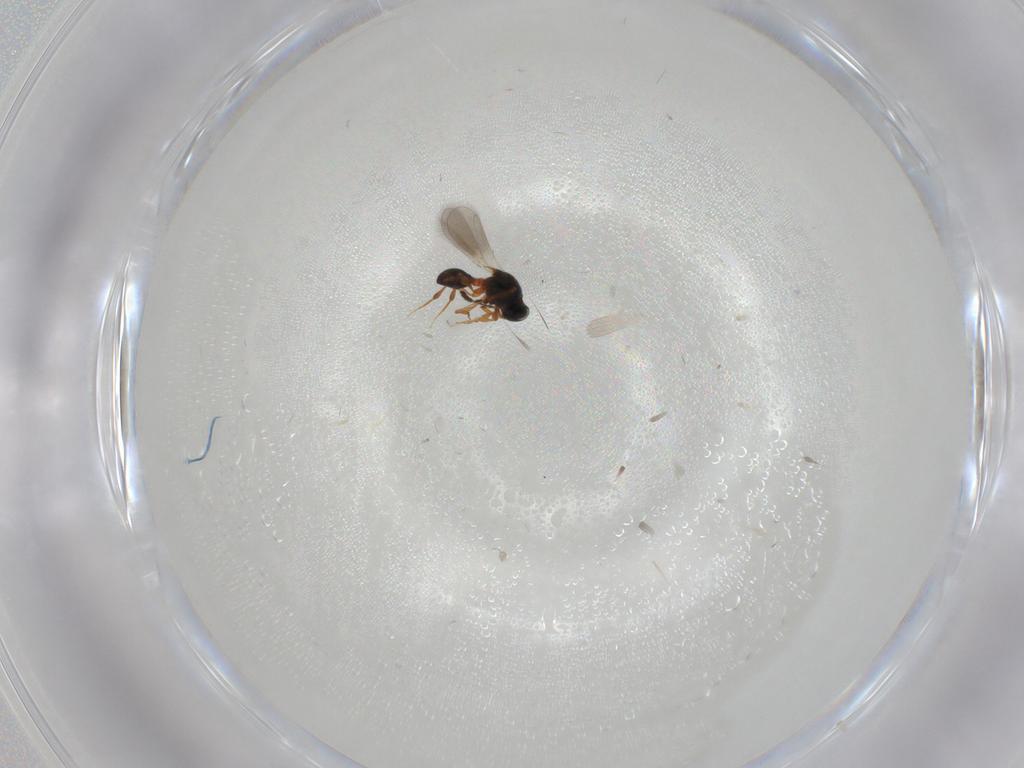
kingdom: Animalia
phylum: Arthropoda
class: Insecta
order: Hymenoptera
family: Platygastridae
